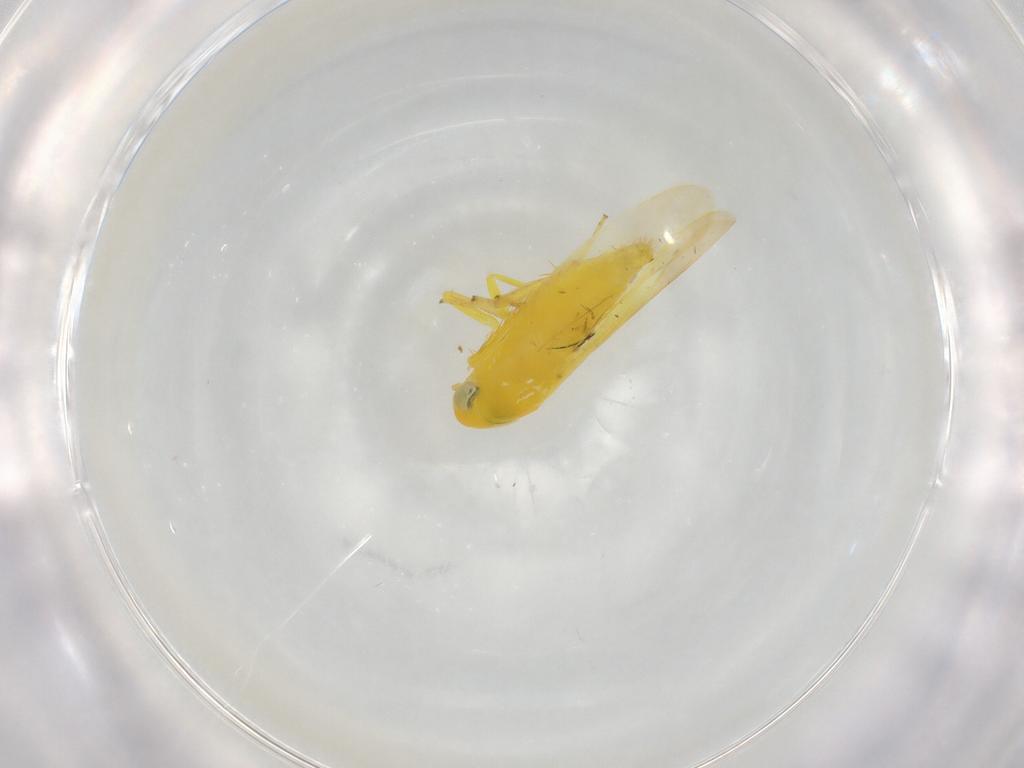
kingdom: Animalia
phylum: Arthropoda
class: Insecta
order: Hemiptera
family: Cicadellidae
